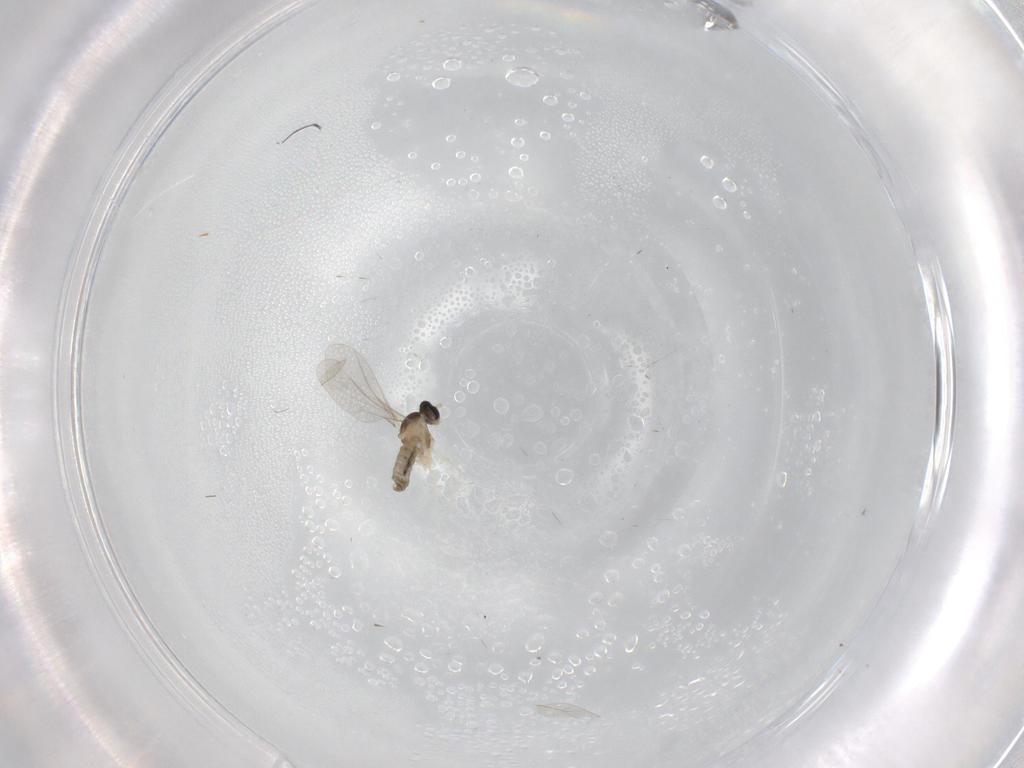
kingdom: Animalia
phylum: Arthropoda
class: Insecta
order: Diptera
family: Cecidomyiidae
